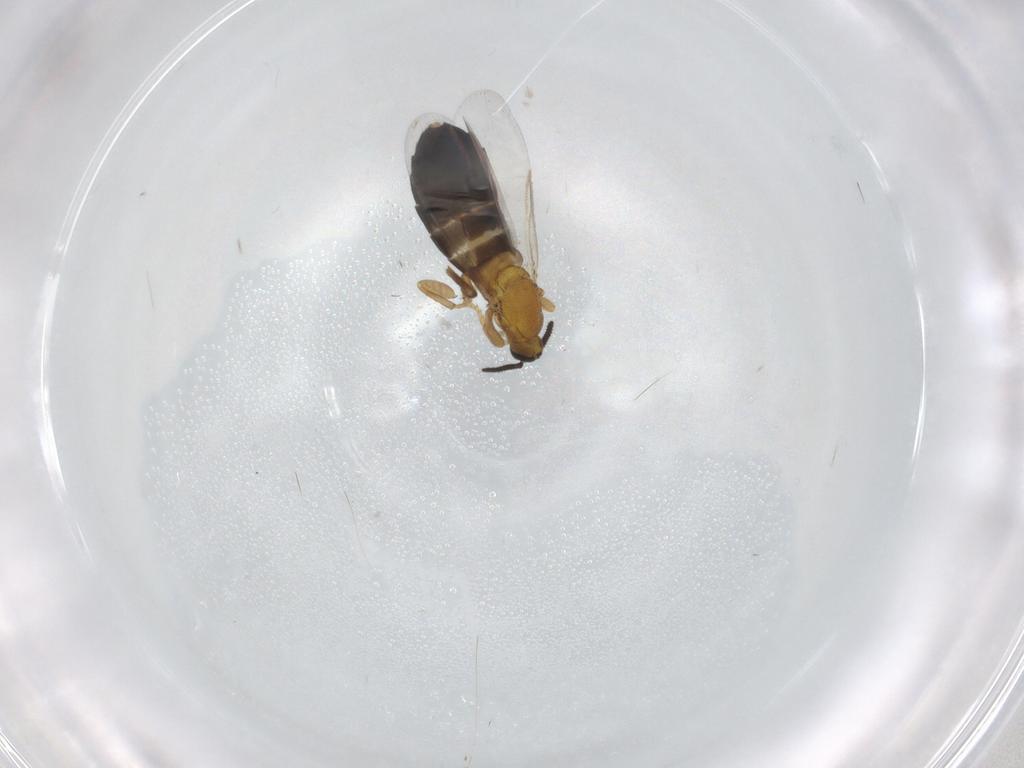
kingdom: Animalia
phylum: Arthropoda
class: Insecta
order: Diptera
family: Scatopsidae
